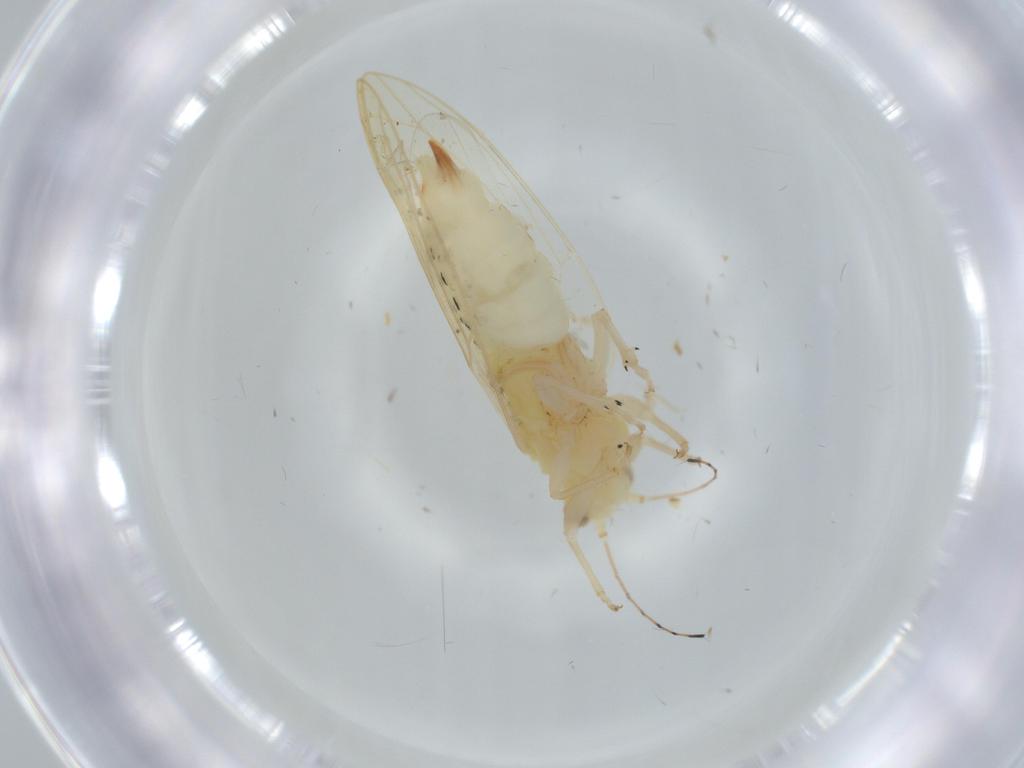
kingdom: Animalia
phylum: Arthropoda
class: Insecta
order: Hemiptera
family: Triozidae
